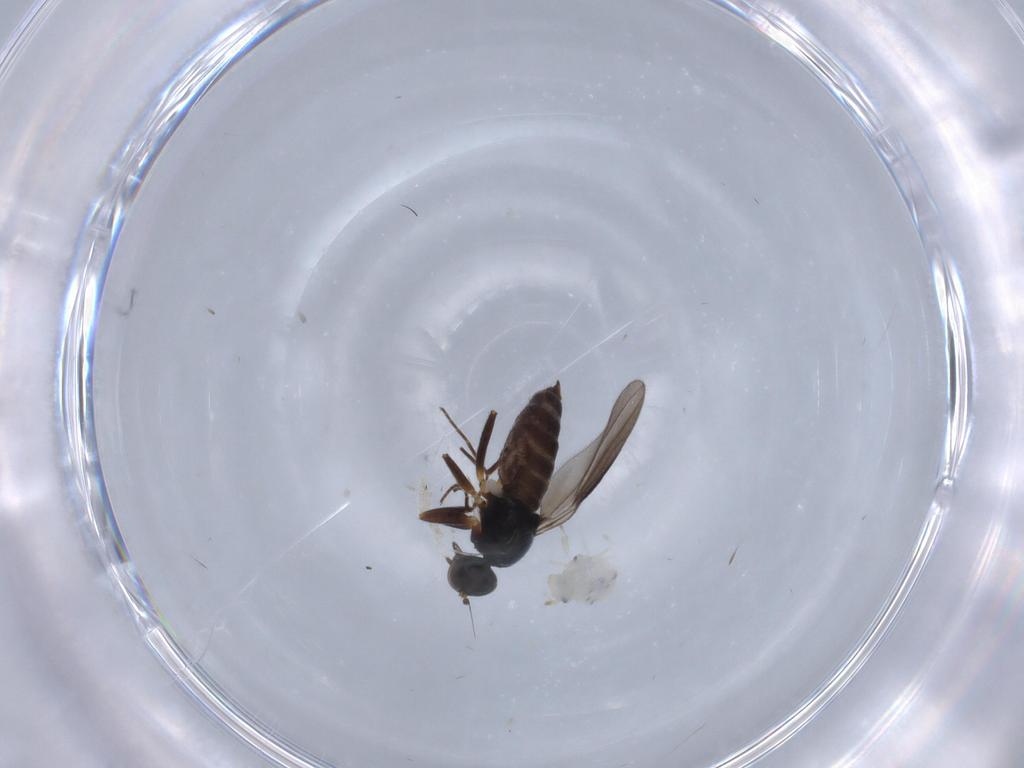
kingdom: Animalia
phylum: Arthropoda
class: Insecta
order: Diptera
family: Hybotidae
